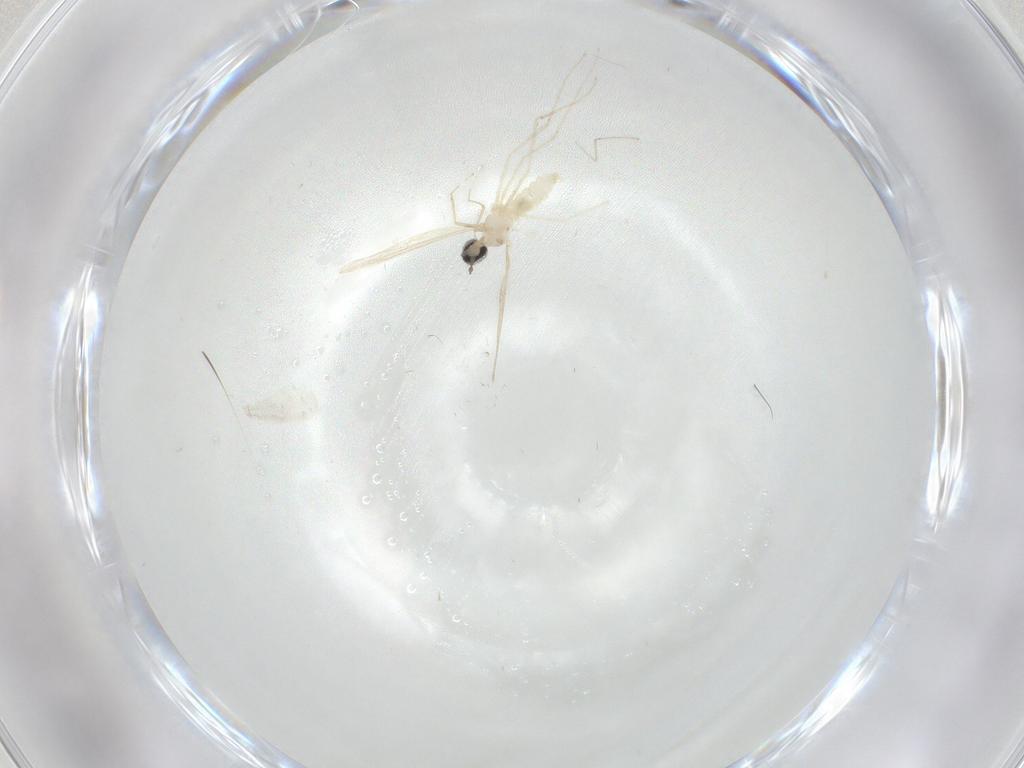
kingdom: Animalia
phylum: Arthropoda
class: Insecta
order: Diptera
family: Cecidomyiidae
